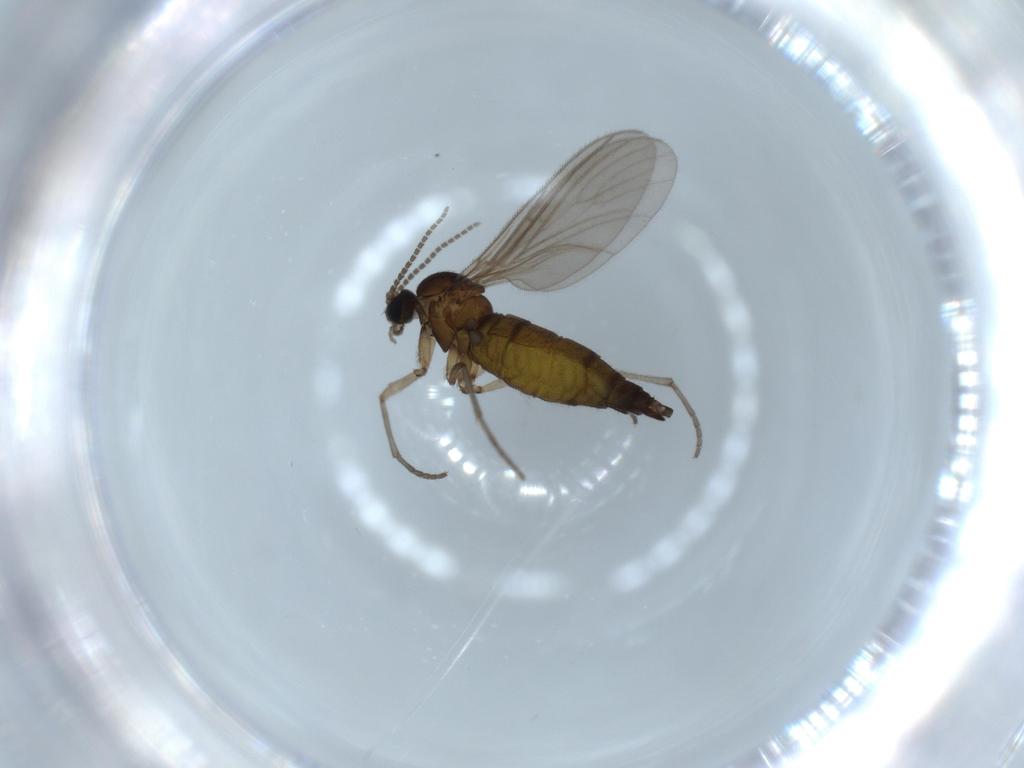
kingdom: Animalia
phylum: Arthropoda
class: Insecta
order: Diptera
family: Sciaridae
